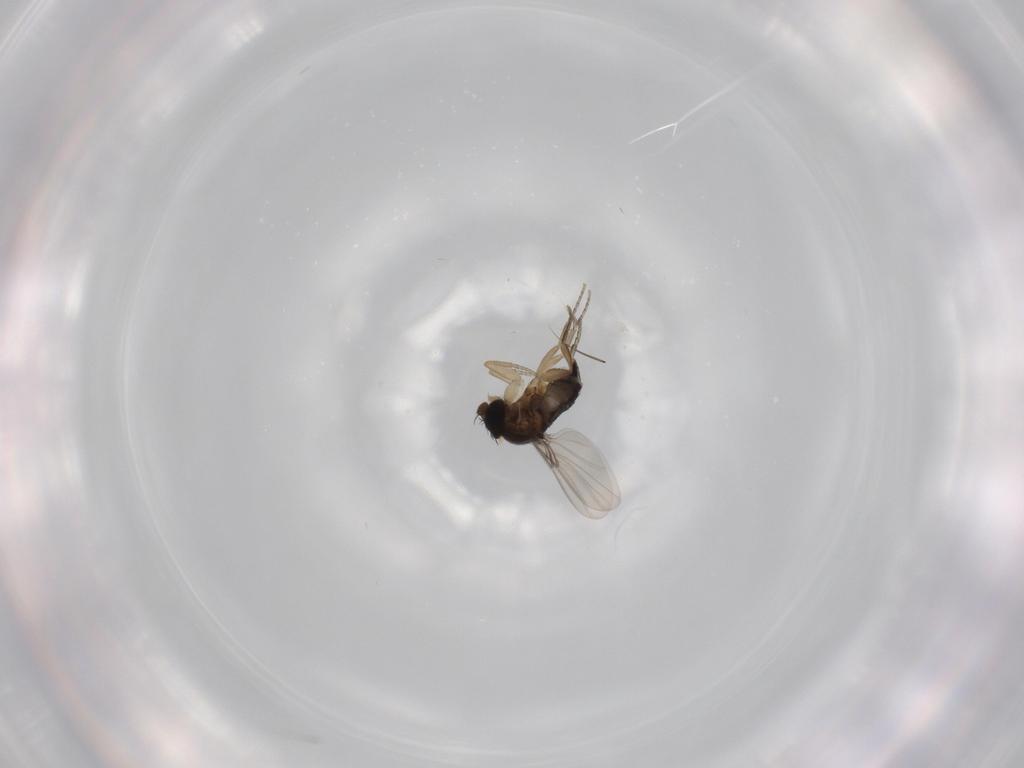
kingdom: Animalia
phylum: Arthropoda
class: Insecta
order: Diptera
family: Phoridae
